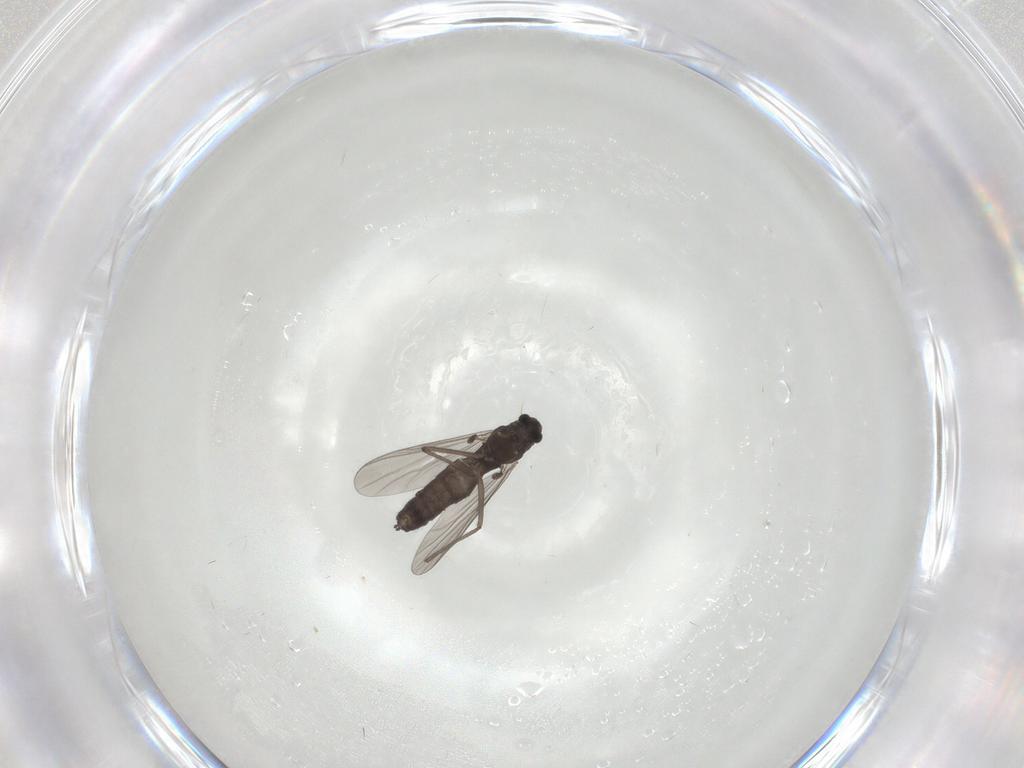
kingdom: Animalia
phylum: Arthropoda
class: Insecta
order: Diptera
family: Chironomidae
